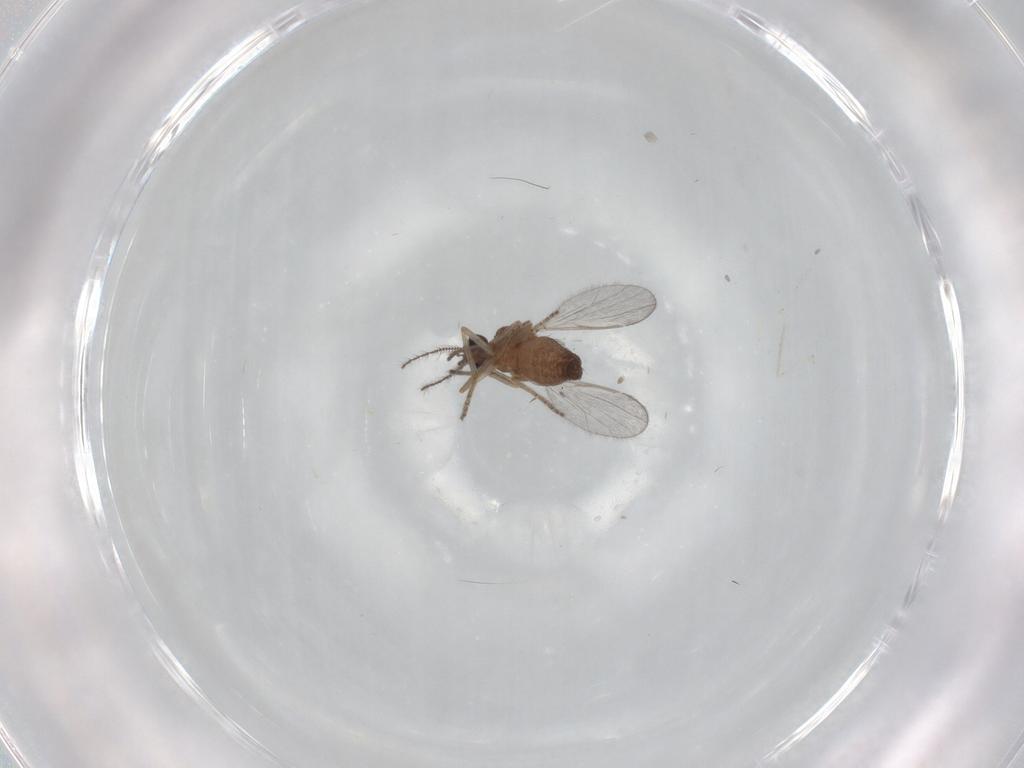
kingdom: Animalia
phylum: Arthropoda
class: Insecta
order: Diptera
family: Ceratopogonidae
